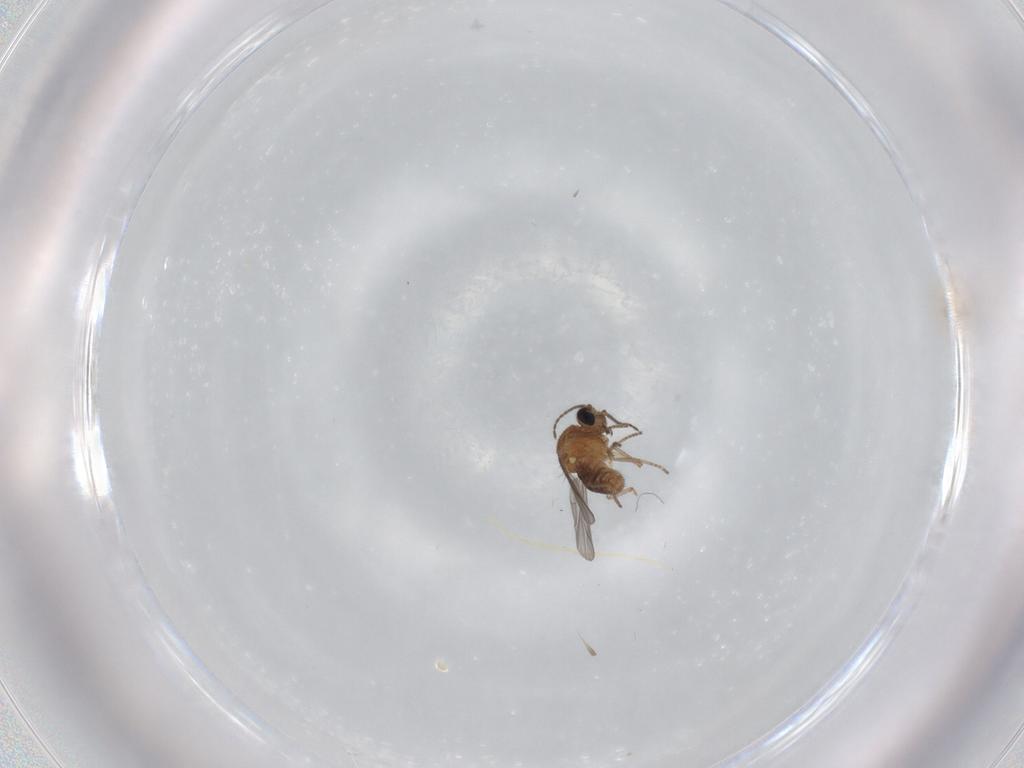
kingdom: Animalia
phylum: Arthropoda
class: Insecta
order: Diptera
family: Ceratopogonidae
